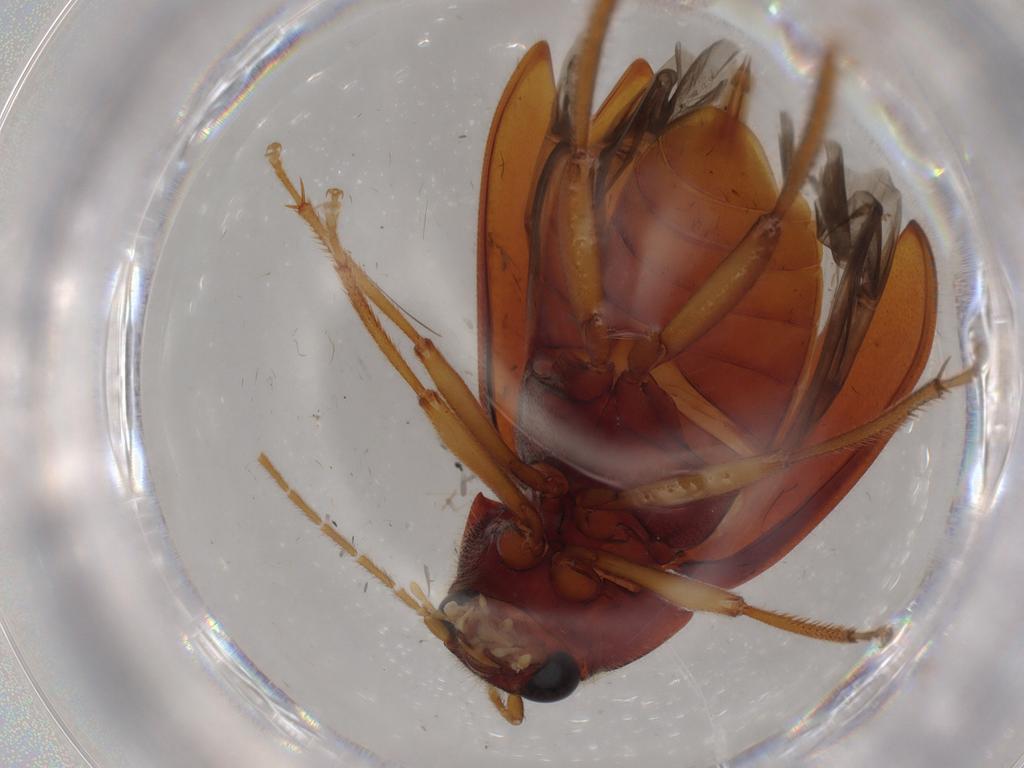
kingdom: Animalia
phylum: Arthropoda
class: Insecta
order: Coleoptera
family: Ptilodactylidae
